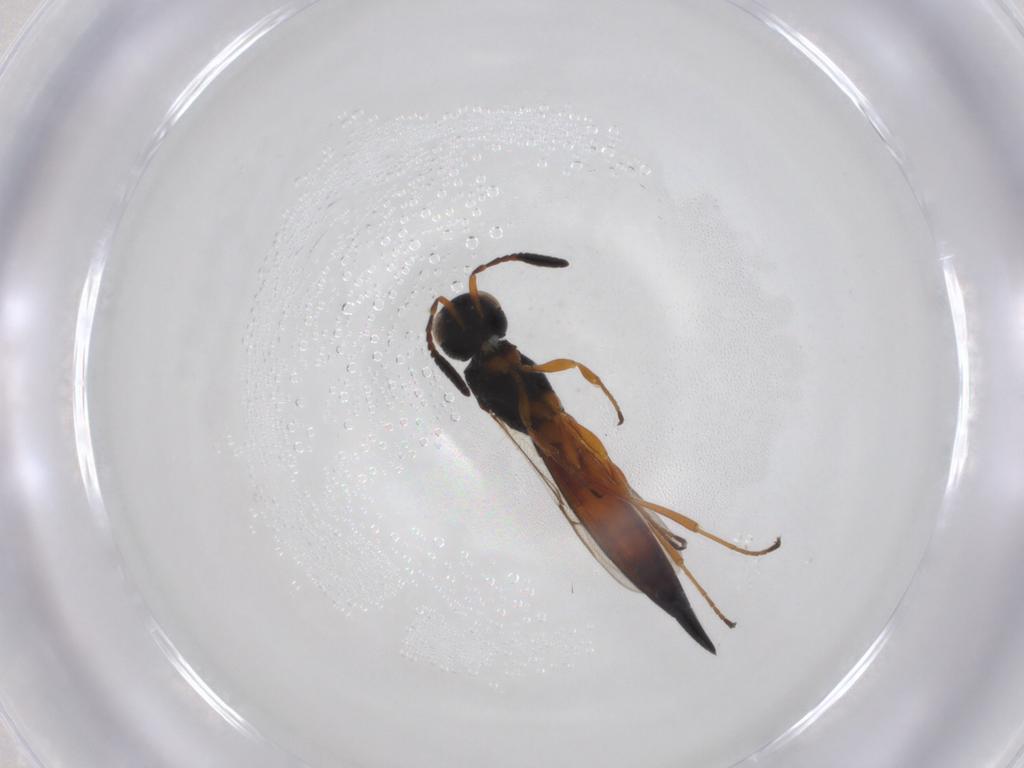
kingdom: Animalia
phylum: Arthropoda
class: Insecta
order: Hymenoptera
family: Scelionidae
